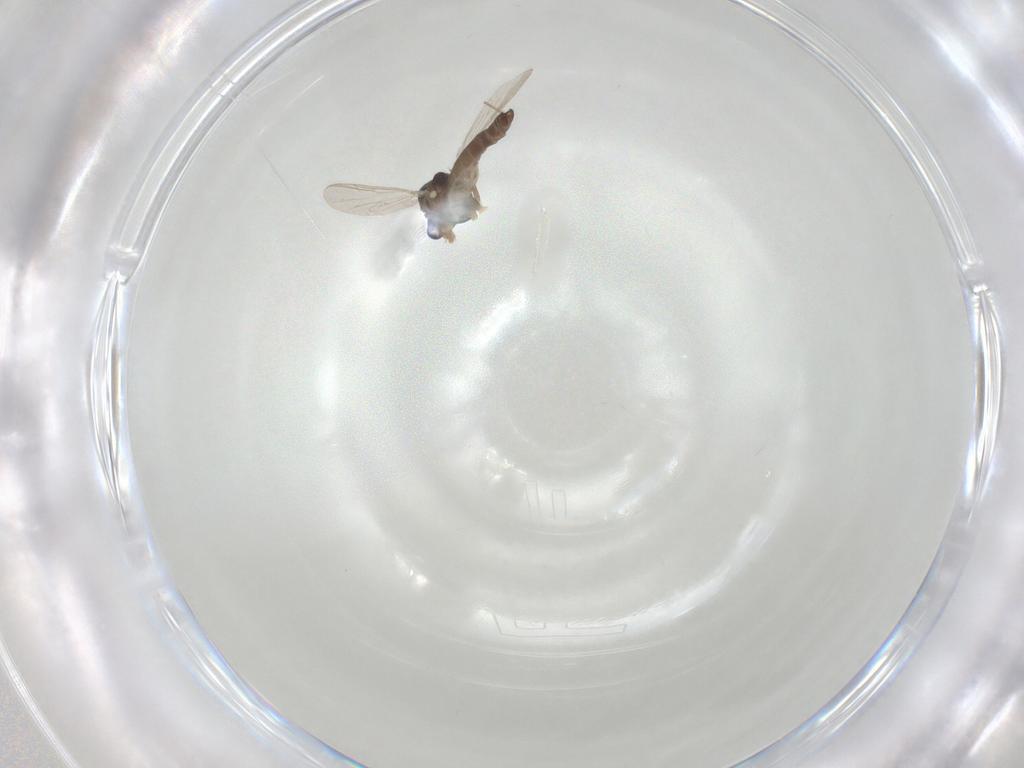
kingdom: Animalia
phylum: Arthropoda
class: Insecta
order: Diptera
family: Chironomidae
